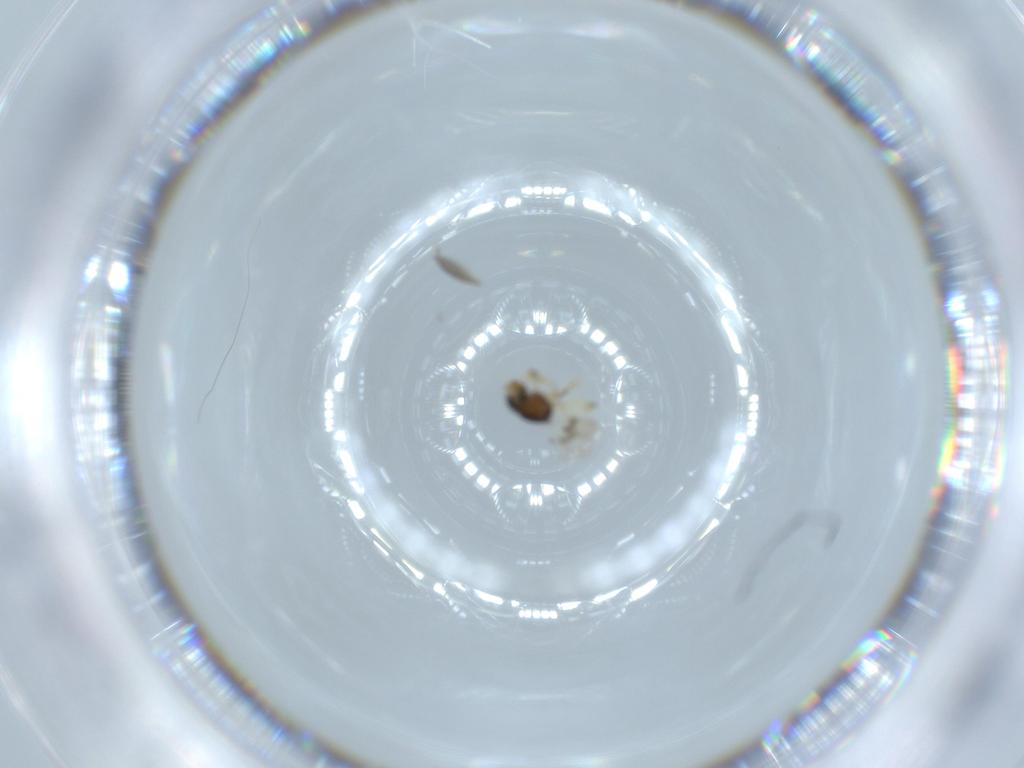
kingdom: Animalia
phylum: Arthropoda
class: Insecta
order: Hymenoptera
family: Scelionidae
